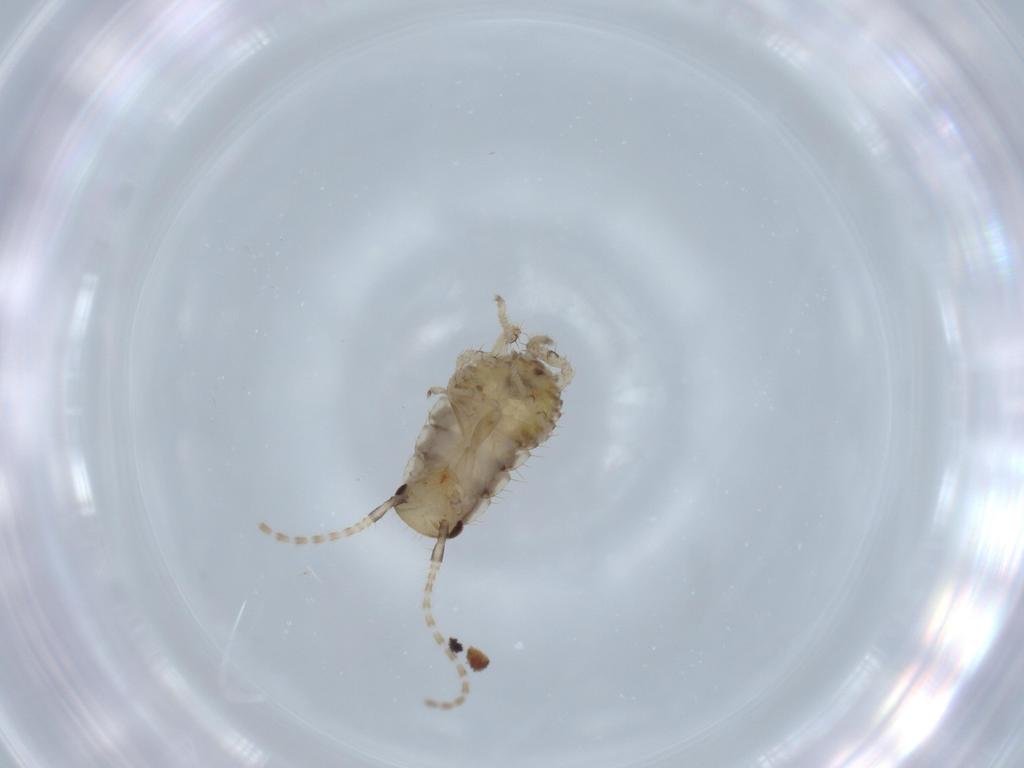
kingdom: Animalia
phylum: Arthropoda
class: Insecta
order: Blattodea
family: Ectobiidae
